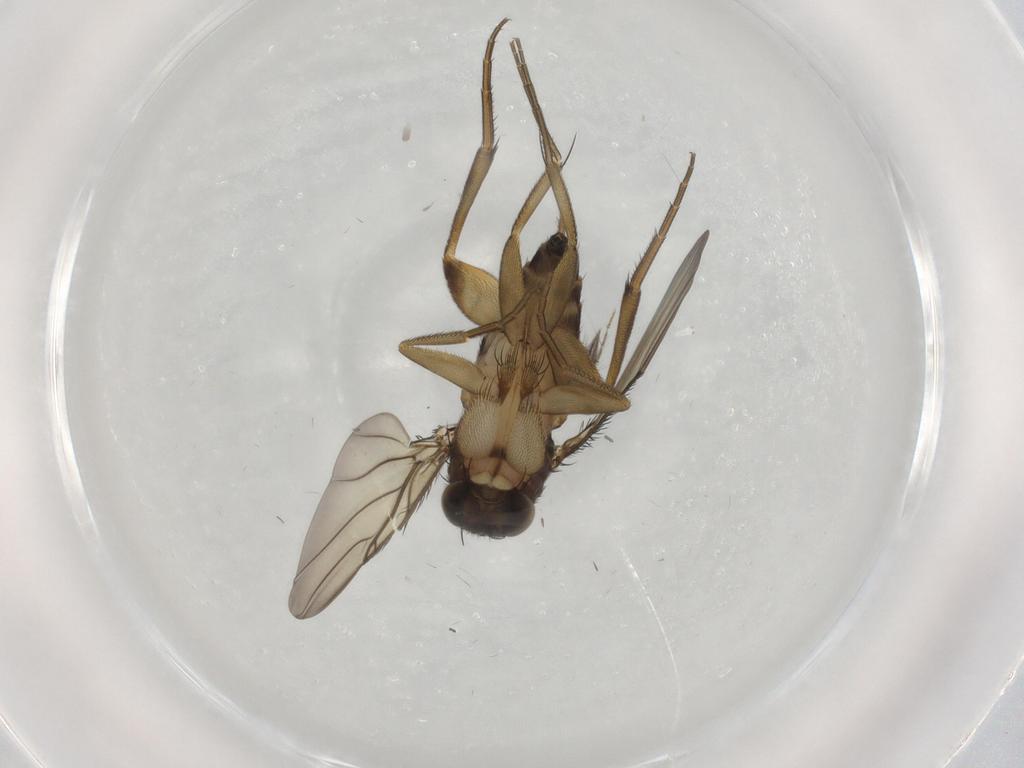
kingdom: Animalia
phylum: Arthropoda
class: Insecta
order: Diptera
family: Phoridae
